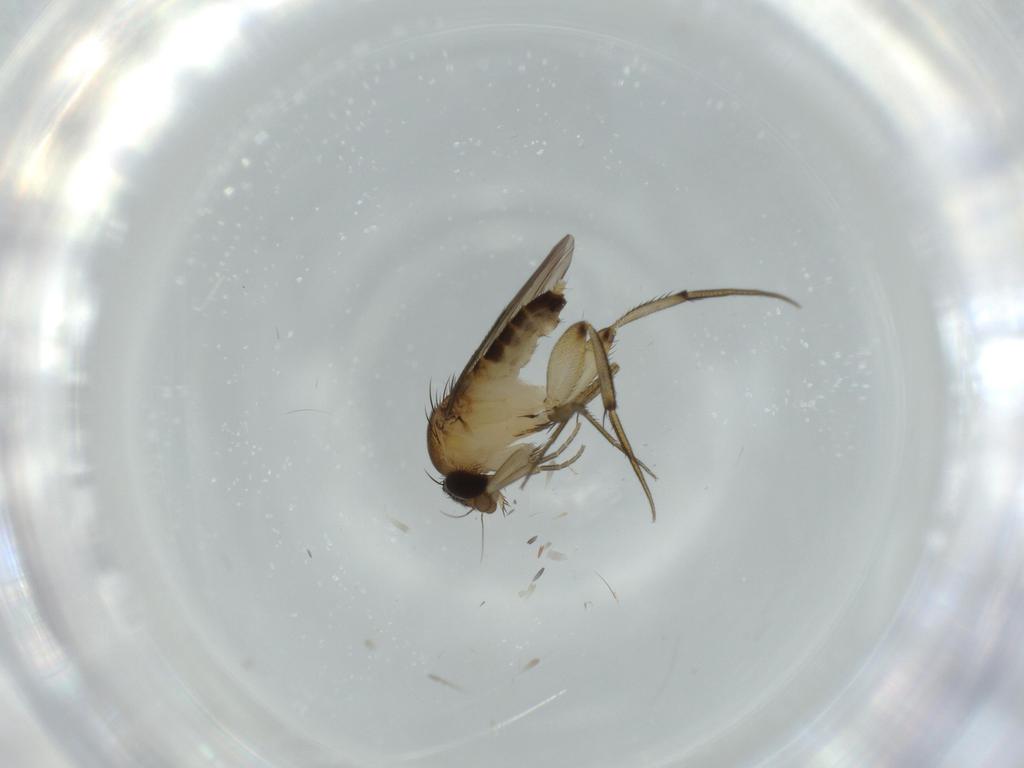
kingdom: Animalia
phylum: Arthropoda
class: Insecta
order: Diptera
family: Phoridae
